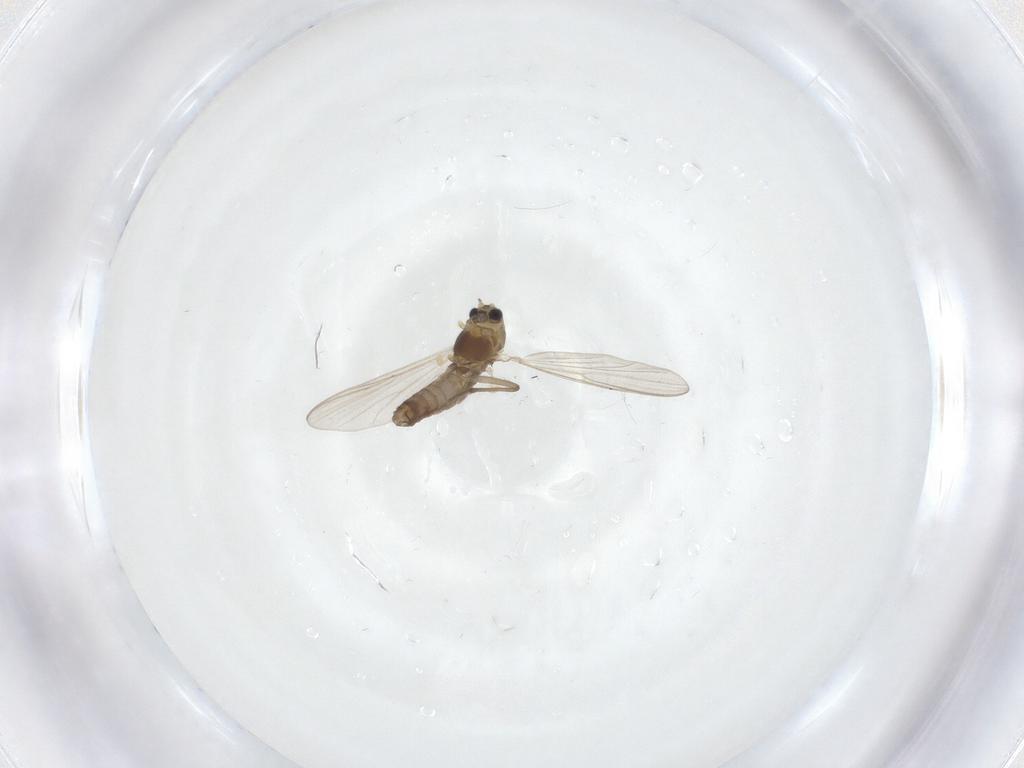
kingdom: Animalia
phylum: Arthropoda
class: Insecta
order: Diptera
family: Chironomidae
